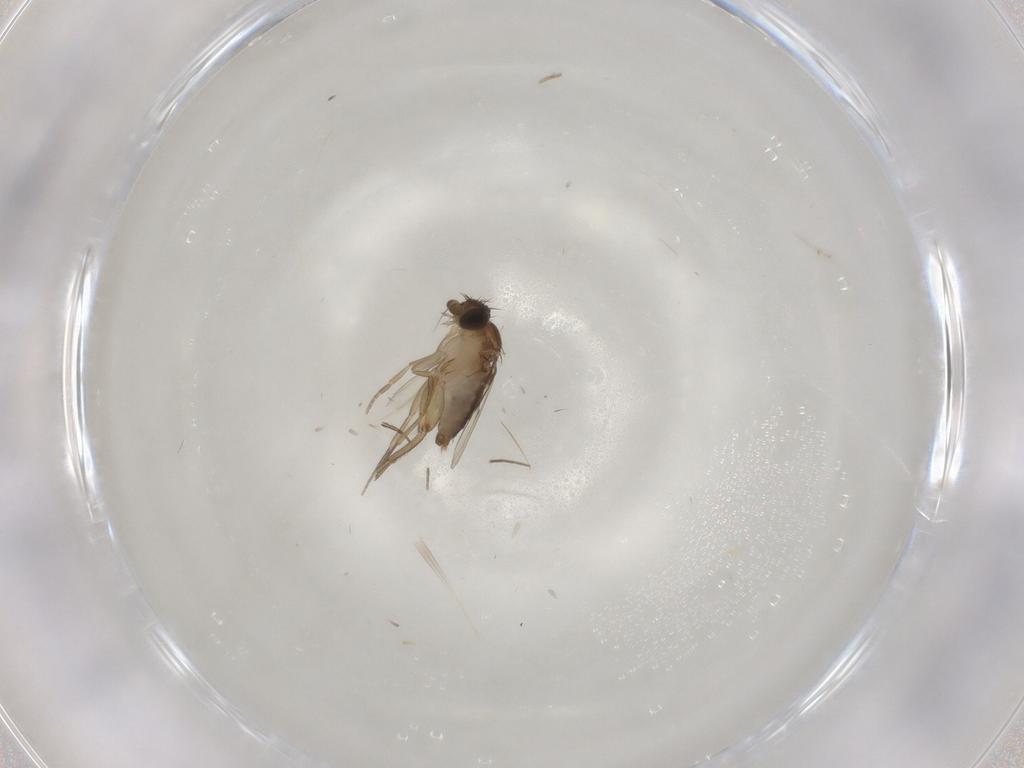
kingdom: Animalia
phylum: Arthropoda
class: Insecta
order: Diptera
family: Phoridae
